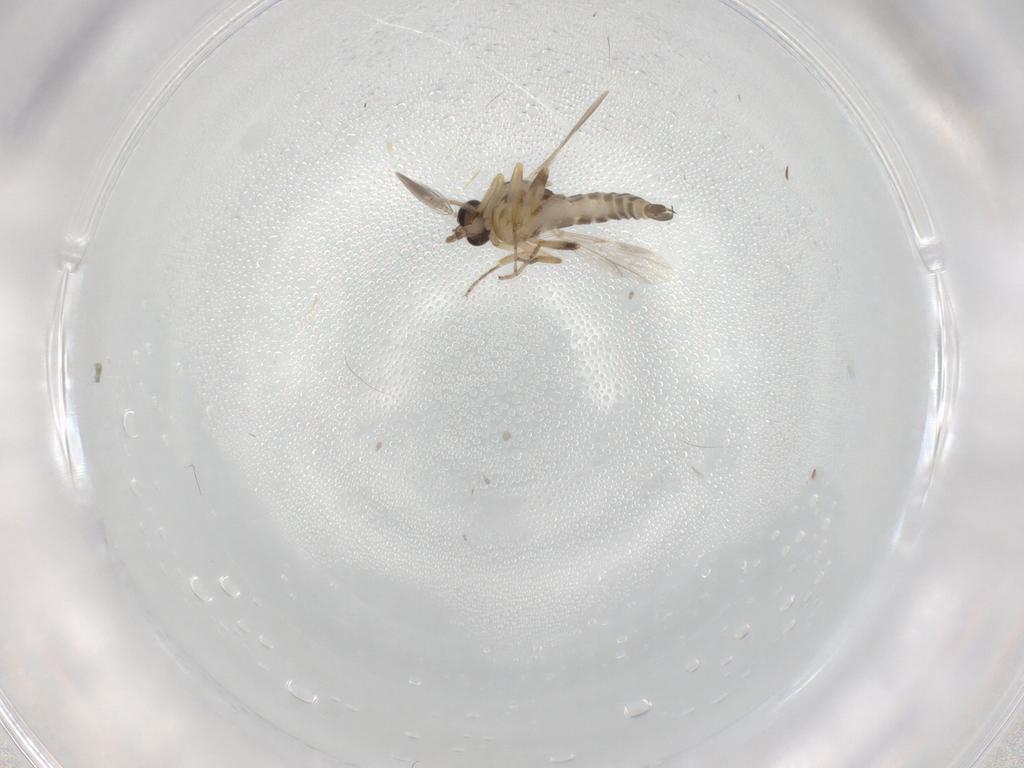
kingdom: Animalia
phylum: Arthropoda
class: Insecta
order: Diptera
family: Ceratopogonidae
